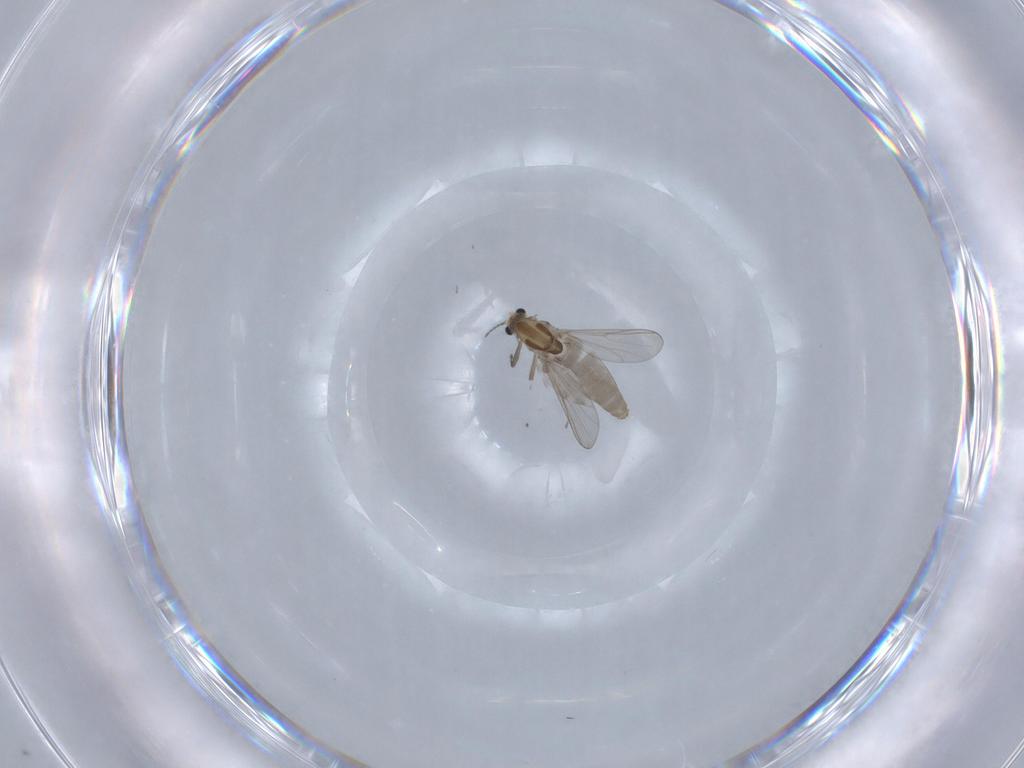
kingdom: Animalia
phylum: Arthropoda
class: Insecta
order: Diptera
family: Chironomidae
